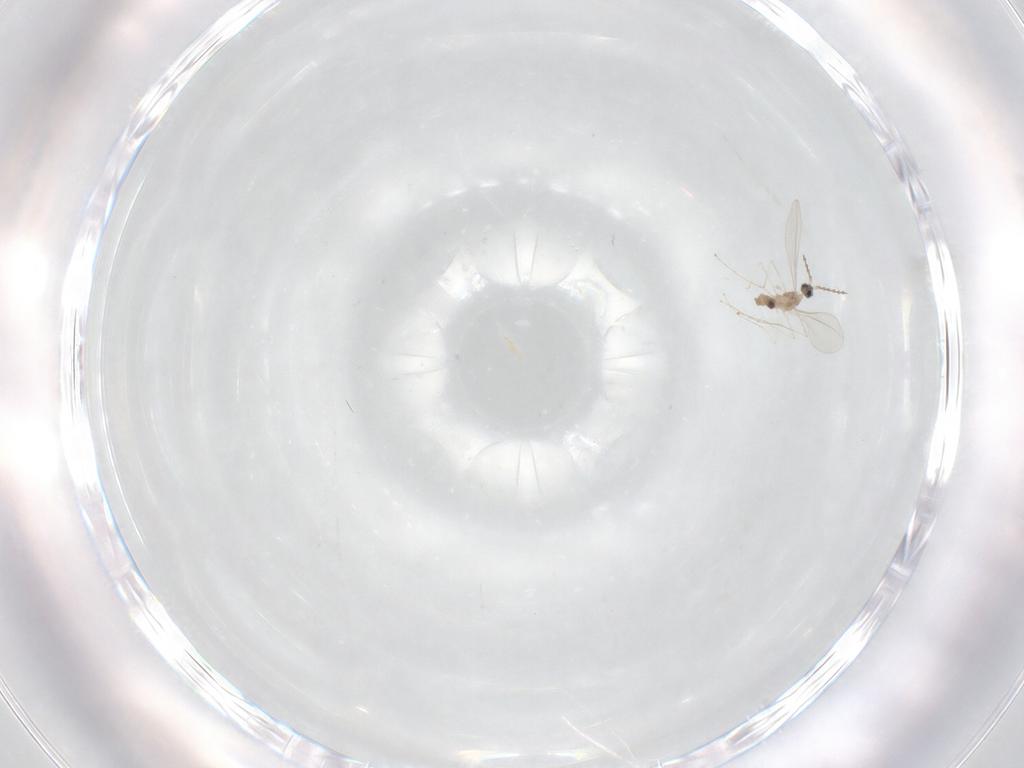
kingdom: Animalia
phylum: Arthropoda
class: Insecta
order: Diptera
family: Cecidomyiidae
